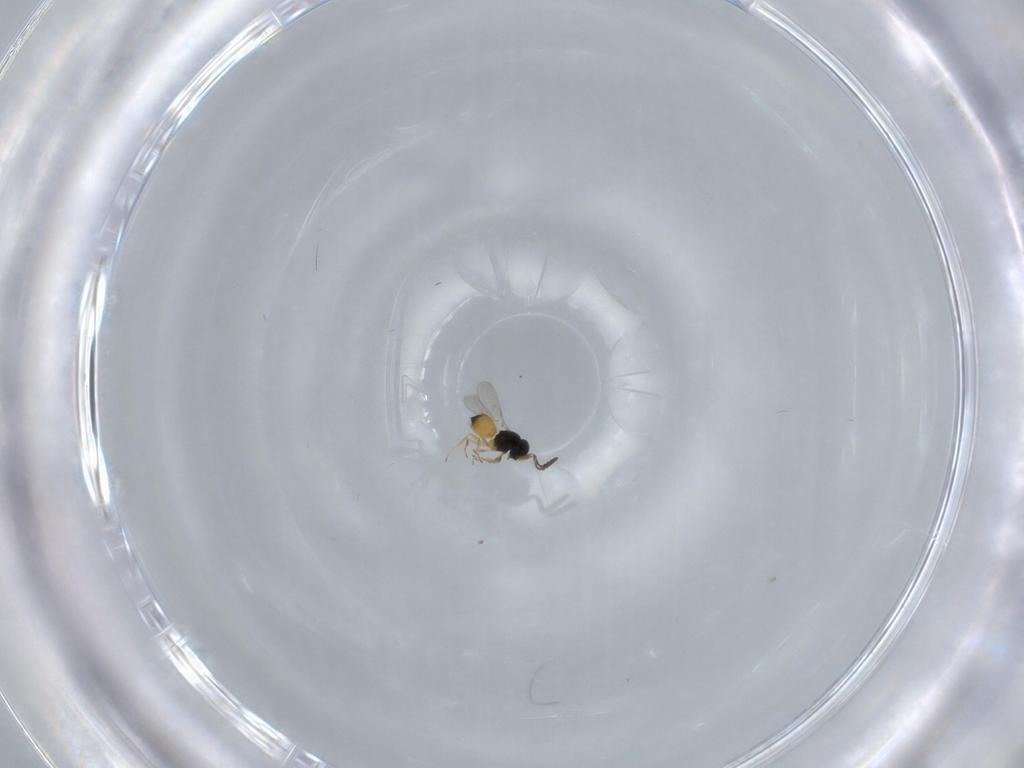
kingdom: Animalia
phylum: Arthropoda
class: Insecta
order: Hymenoptera
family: Scelionidae
